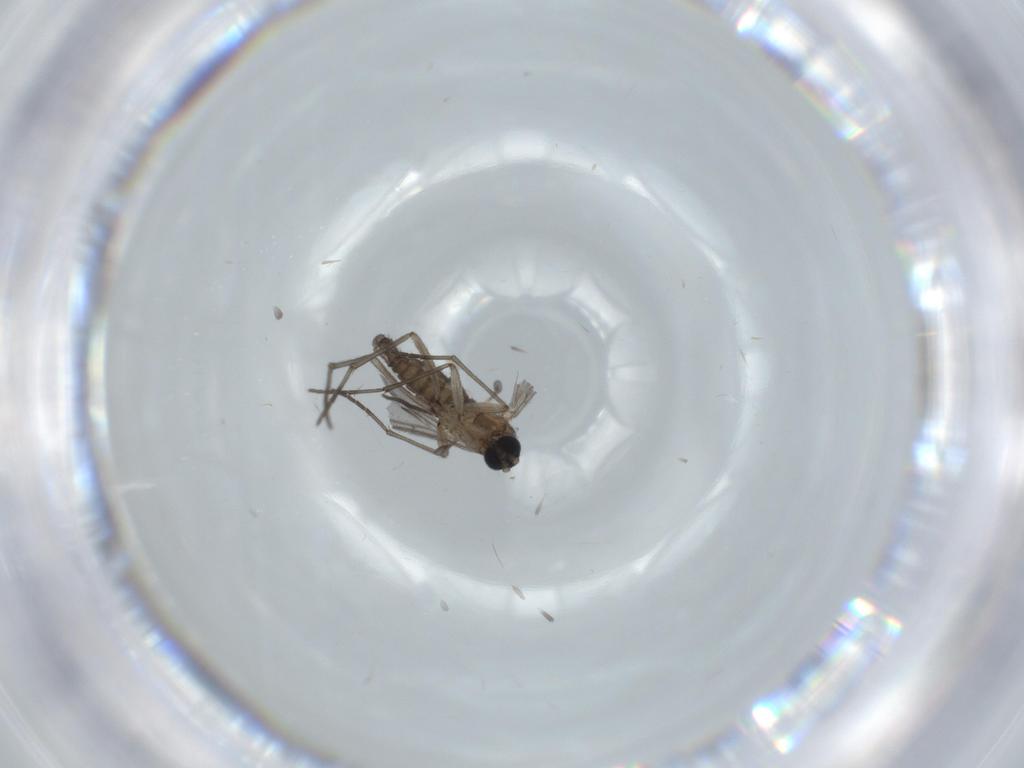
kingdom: Animalia
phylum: Arthropoda
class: Insecta
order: Diptera
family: Sciaridae
